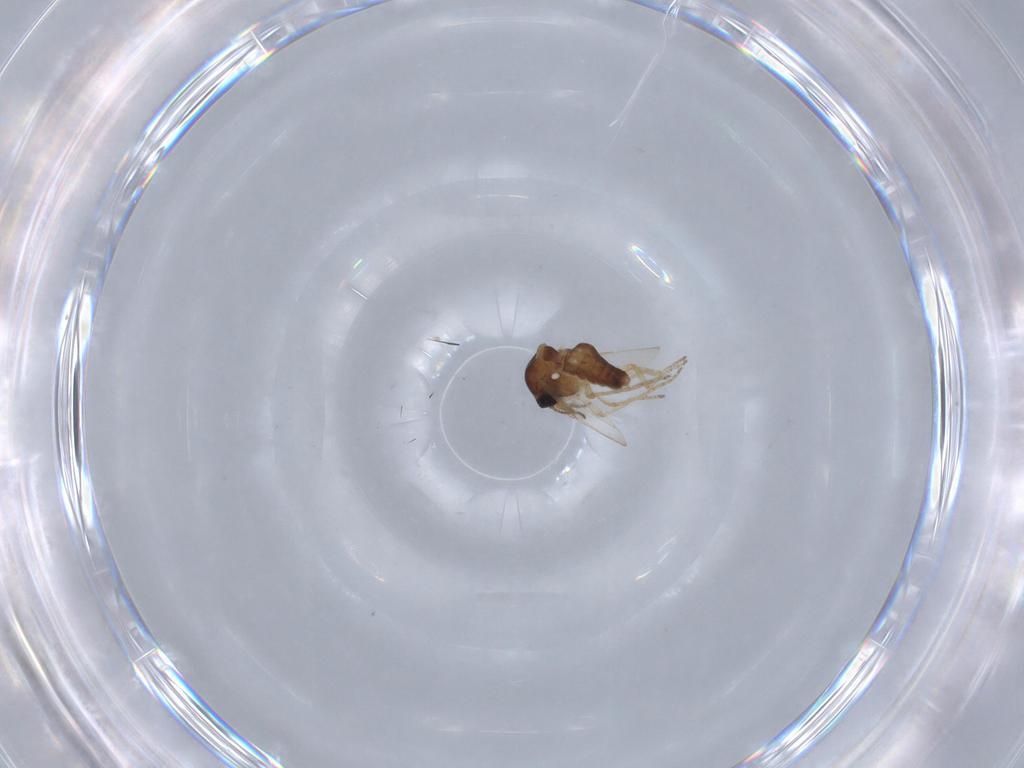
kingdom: Animalia
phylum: Arthropoda
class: Insecta
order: Diptera
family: Ceratopogonidae
